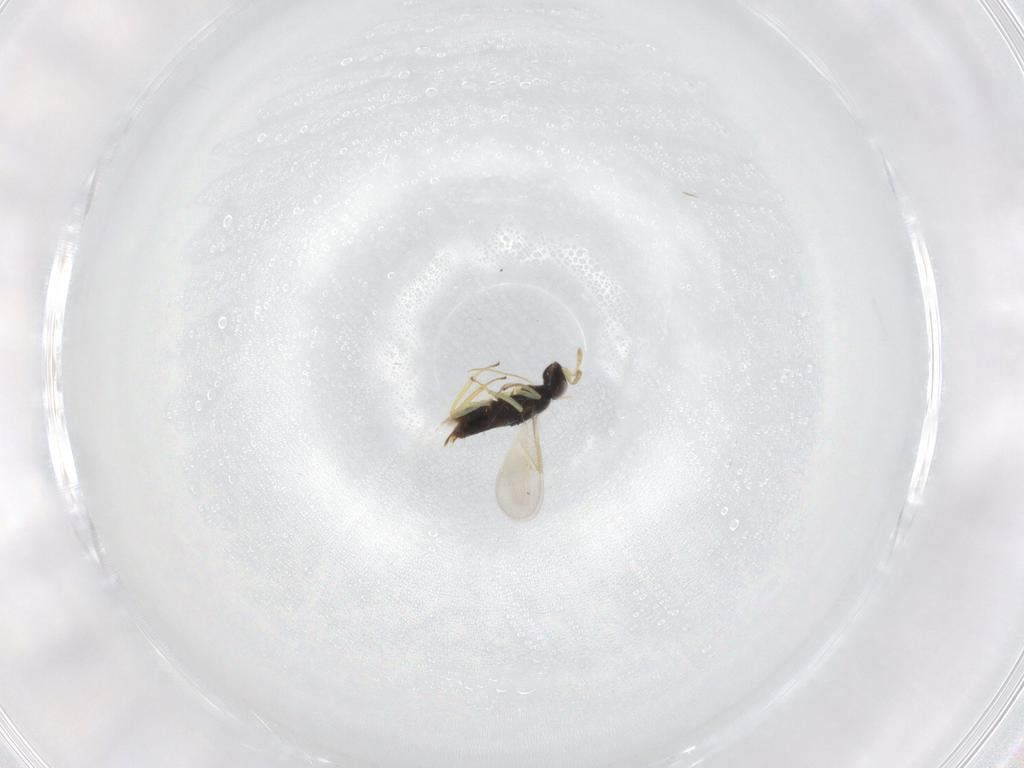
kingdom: Animalia
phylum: Arthropoda
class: Insecta
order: Hymenoptera
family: Aphelinidae
